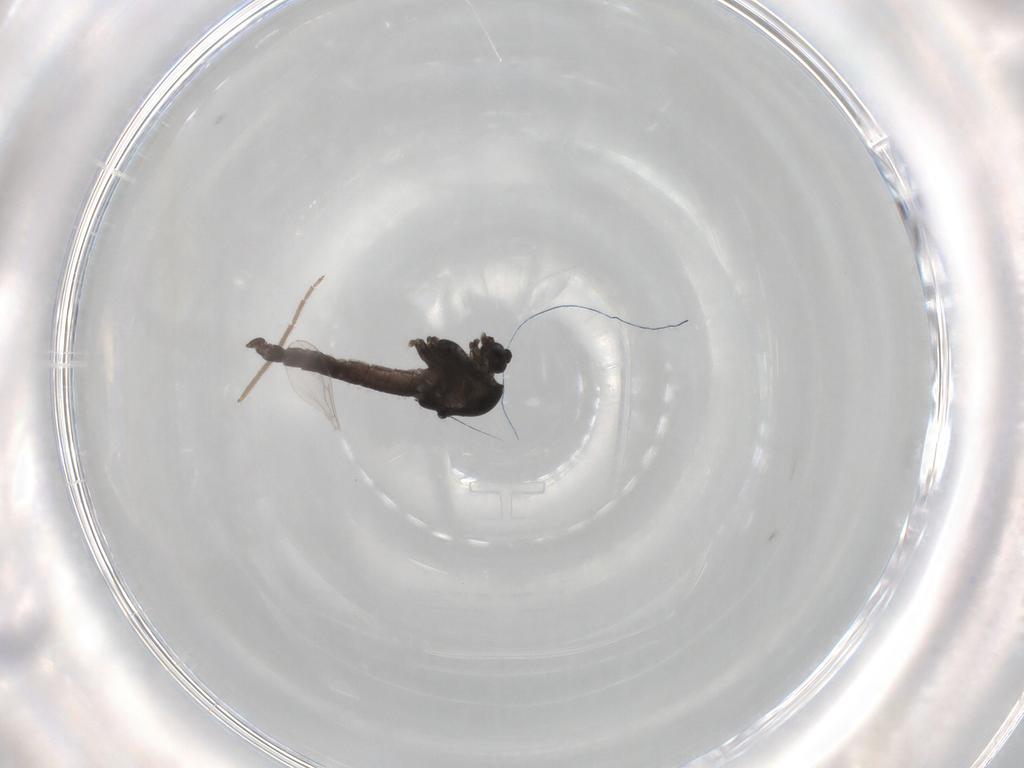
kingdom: Animalia
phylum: Arthropoda
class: Insecta
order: Diptera
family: Chironomidae
